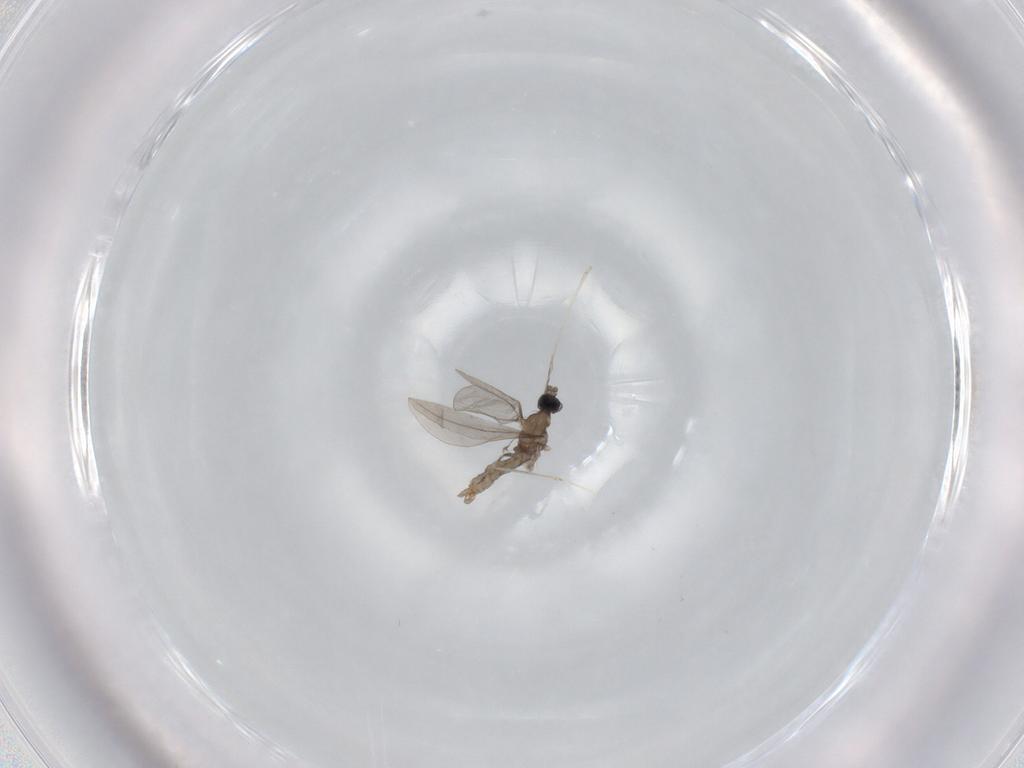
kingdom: Animalia
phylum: Arthropoda
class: Insecta
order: Diptera
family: Cecidomyiidae
